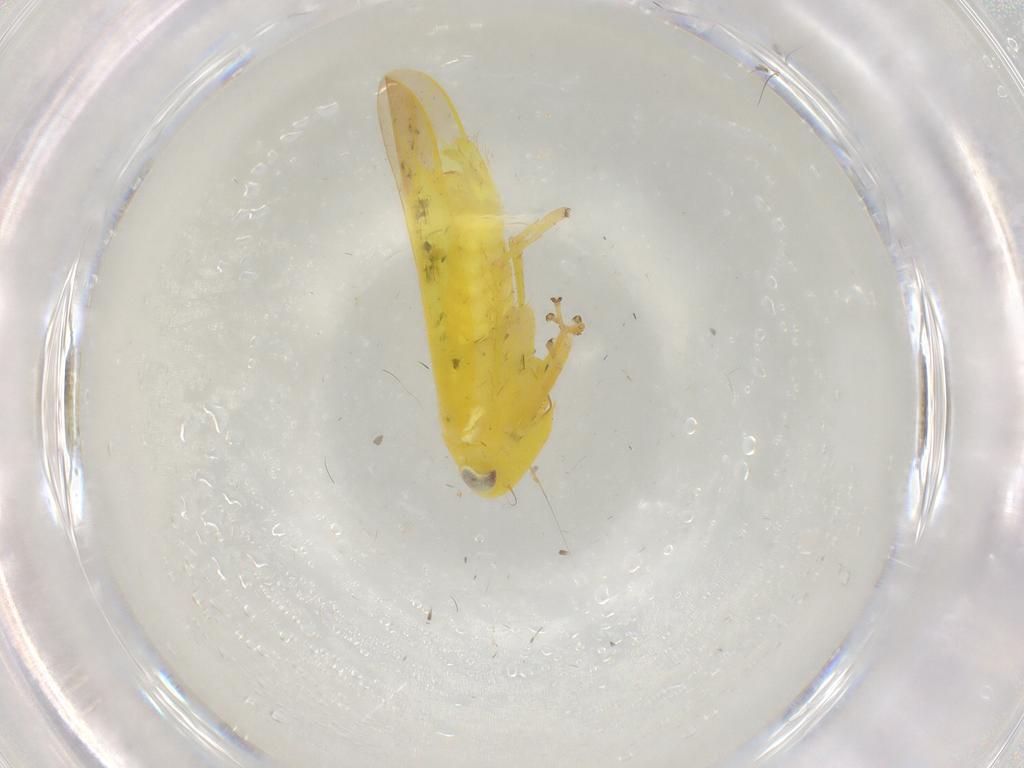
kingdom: Animalia
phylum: Arthropoda
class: Insecta
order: Hemiptera
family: Cicadellidae
